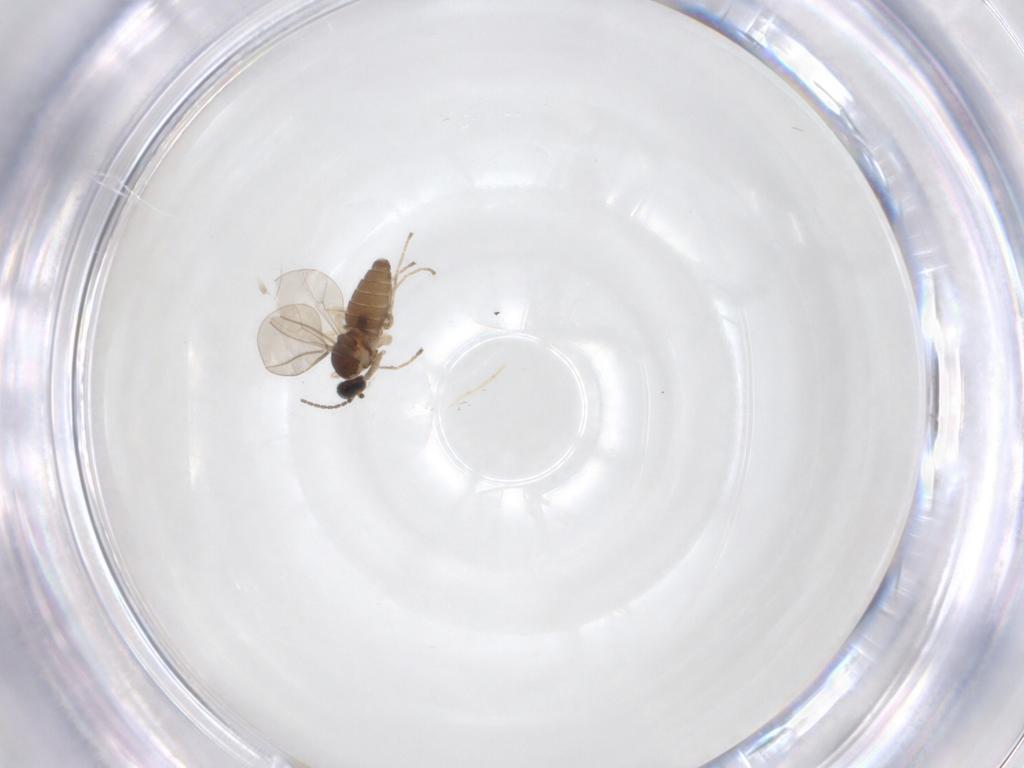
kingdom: Animalia
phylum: Arthropoda
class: Insecta
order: Diptera
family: Cecidomyiidae
